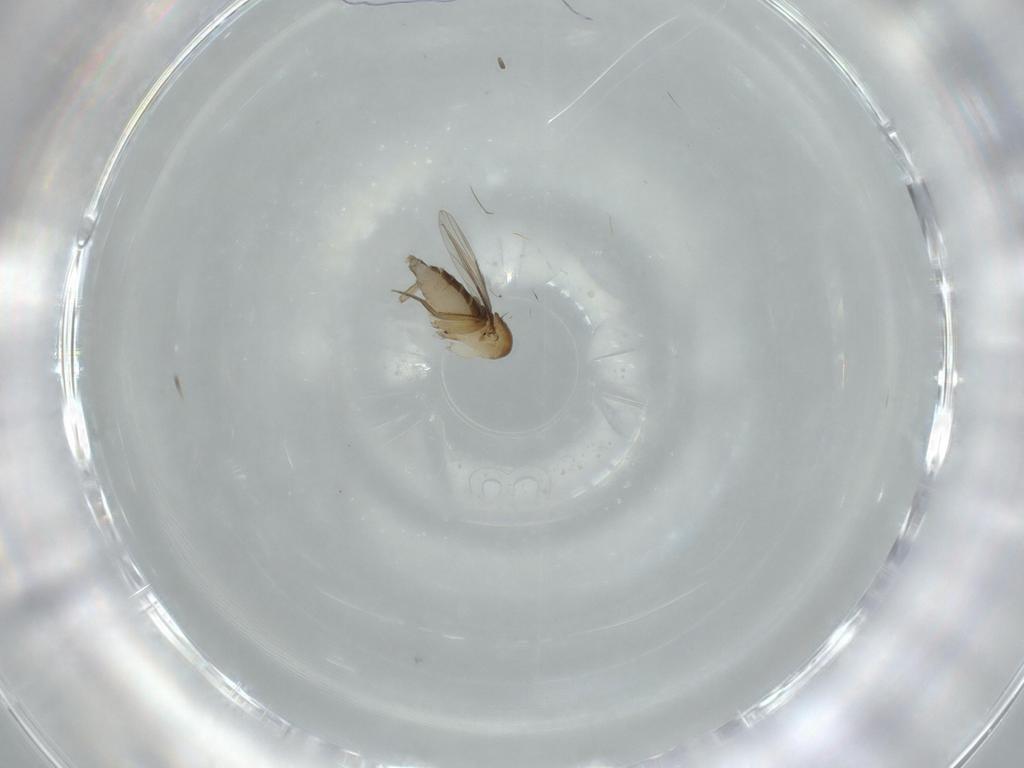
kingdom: Animalia
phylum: Arthropoda
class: Insecta
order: Diptera
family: Phoridae
